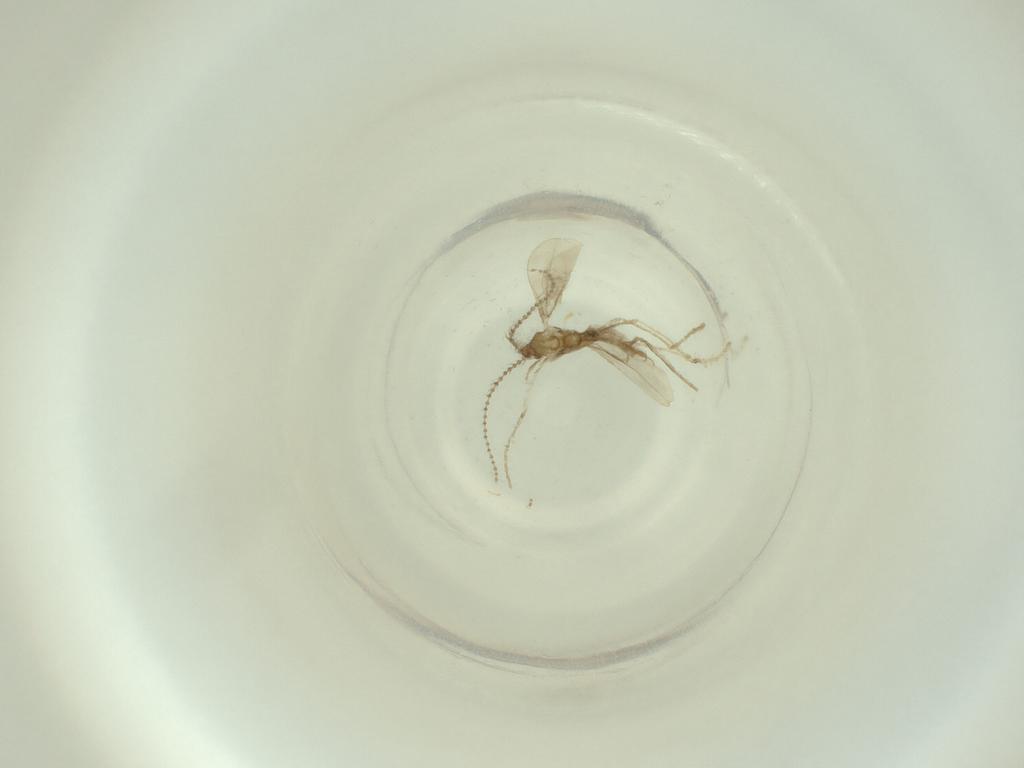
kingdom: Animalia
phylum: Arthropoda
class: Insecta
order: Diptera
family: Cecidomyiidae
